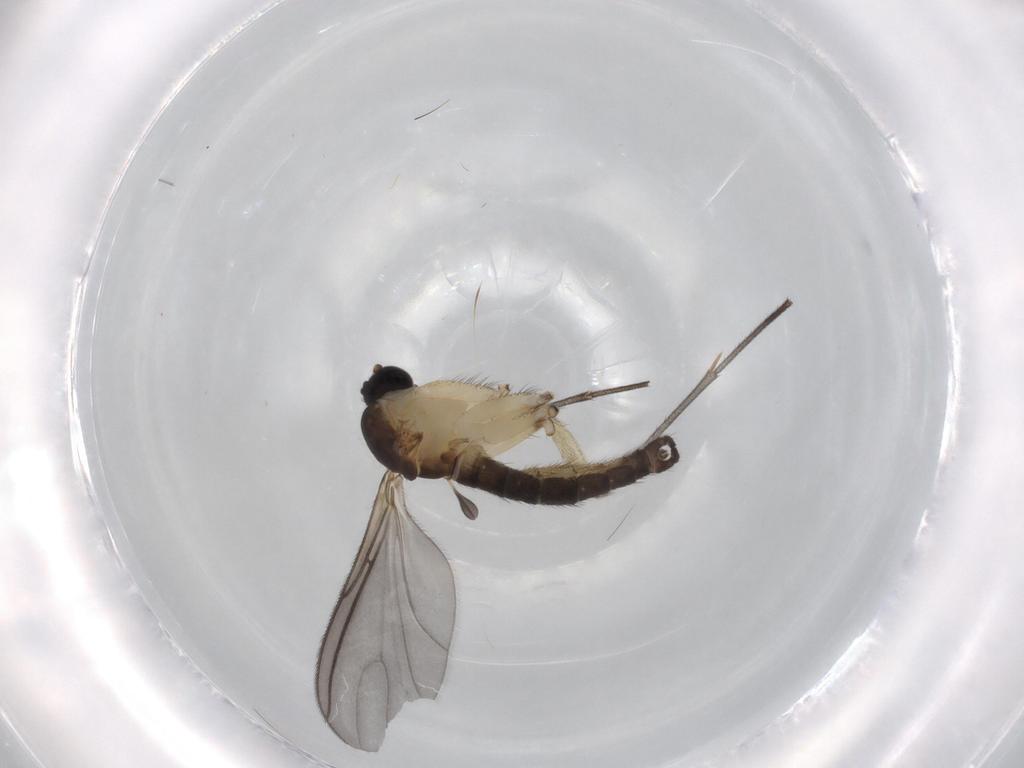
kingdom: Animalia
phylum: Arthropoda
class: Insecta
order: Diptera
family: Sciaridae
